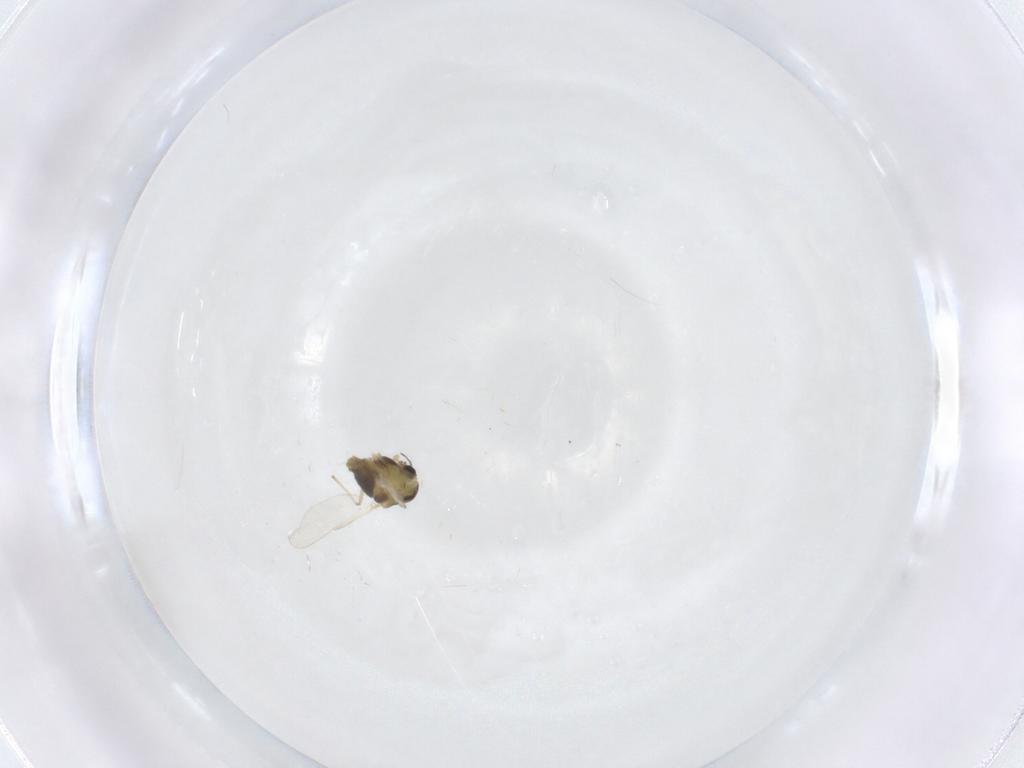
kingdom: Animalia
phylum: Arthropoda
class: Insecta
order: Diptera
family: Chironomidae
